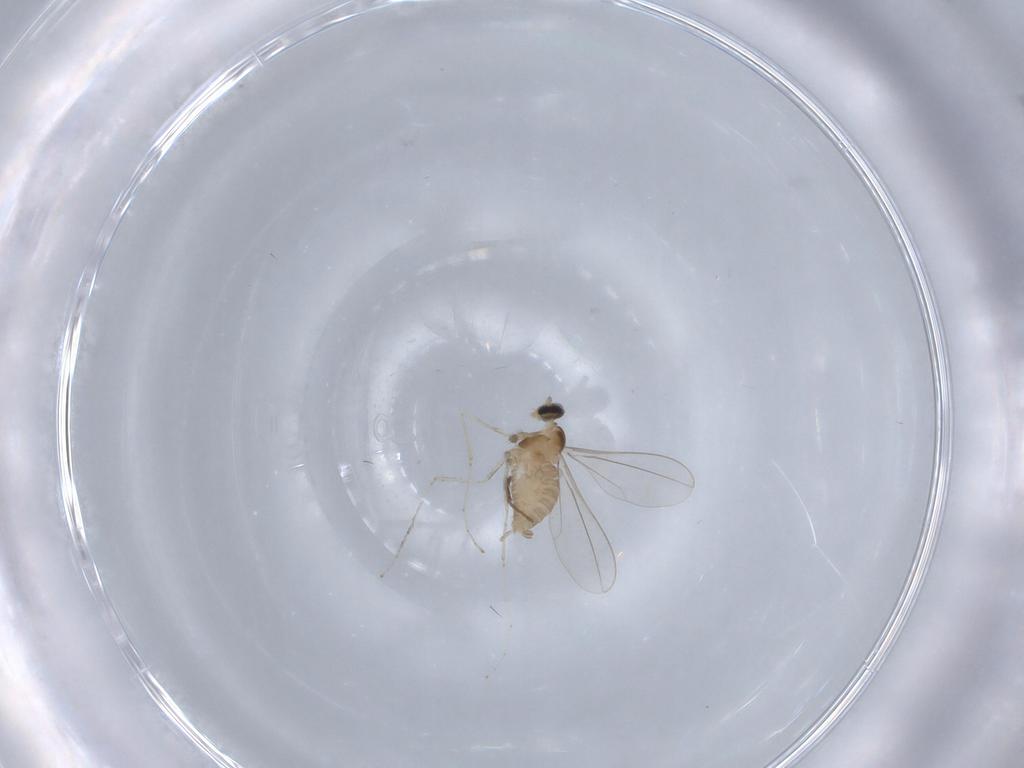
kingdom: Animalia
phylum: Arthropoda
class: Insecta
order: Diptera
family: Cecidomyiidae
